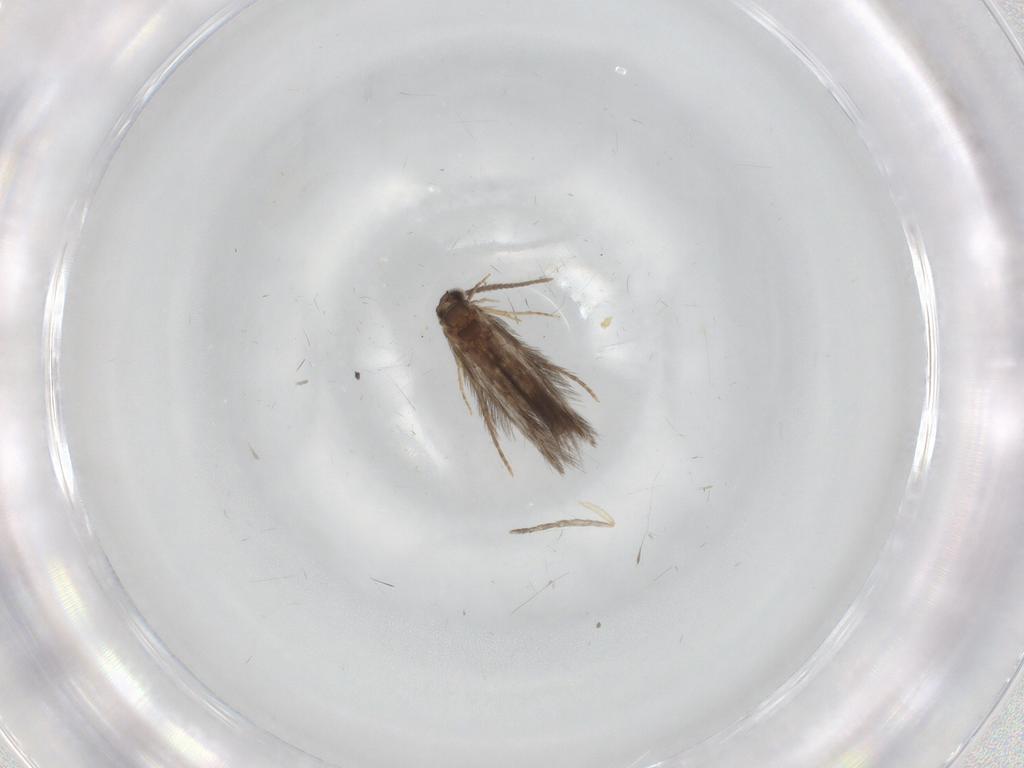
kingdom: Animalia
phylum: Arthropoda
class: Insecta
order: Trichoptera
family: Hydroptilidae
